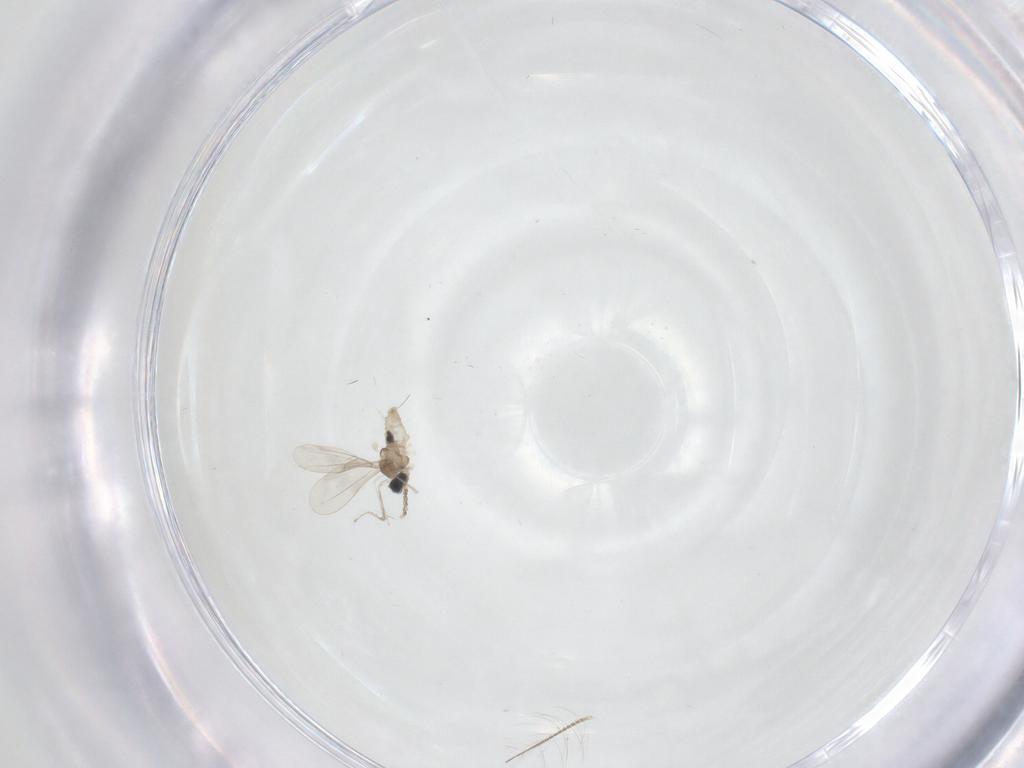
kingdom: Animalia
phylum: Arthropoda
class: Insecta
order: Diptera
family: Cecidomyiidae
